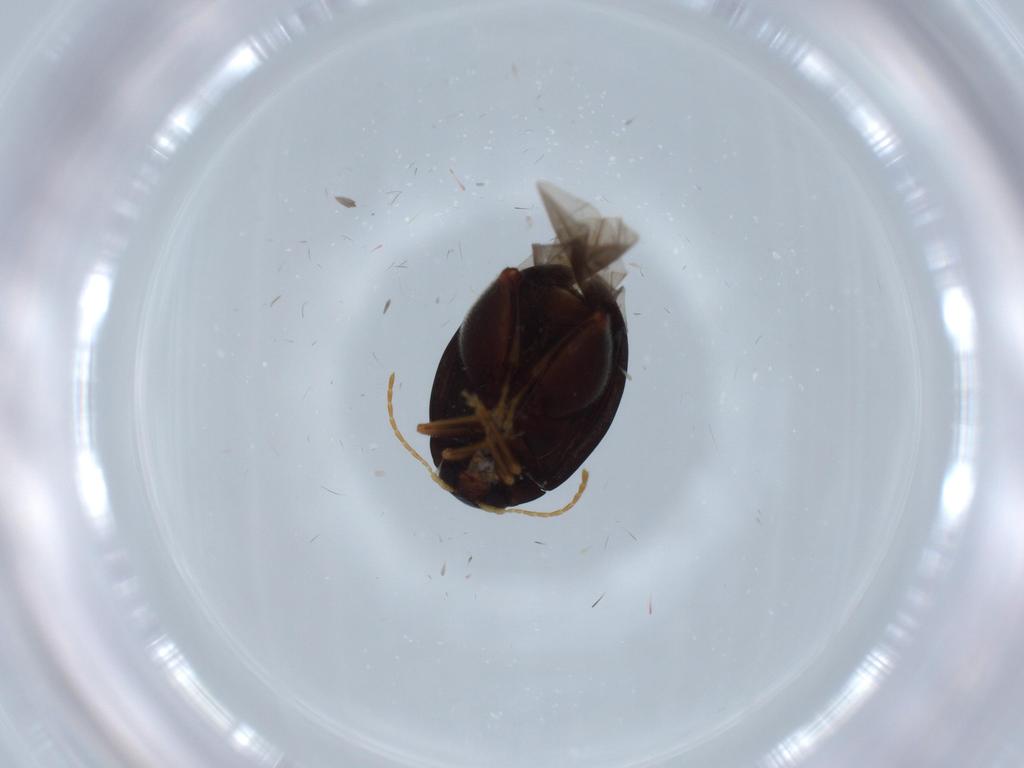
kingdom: Animalia
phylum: Arthropoda
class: Insecta
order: Coleoptera
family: Chrysomelidae
